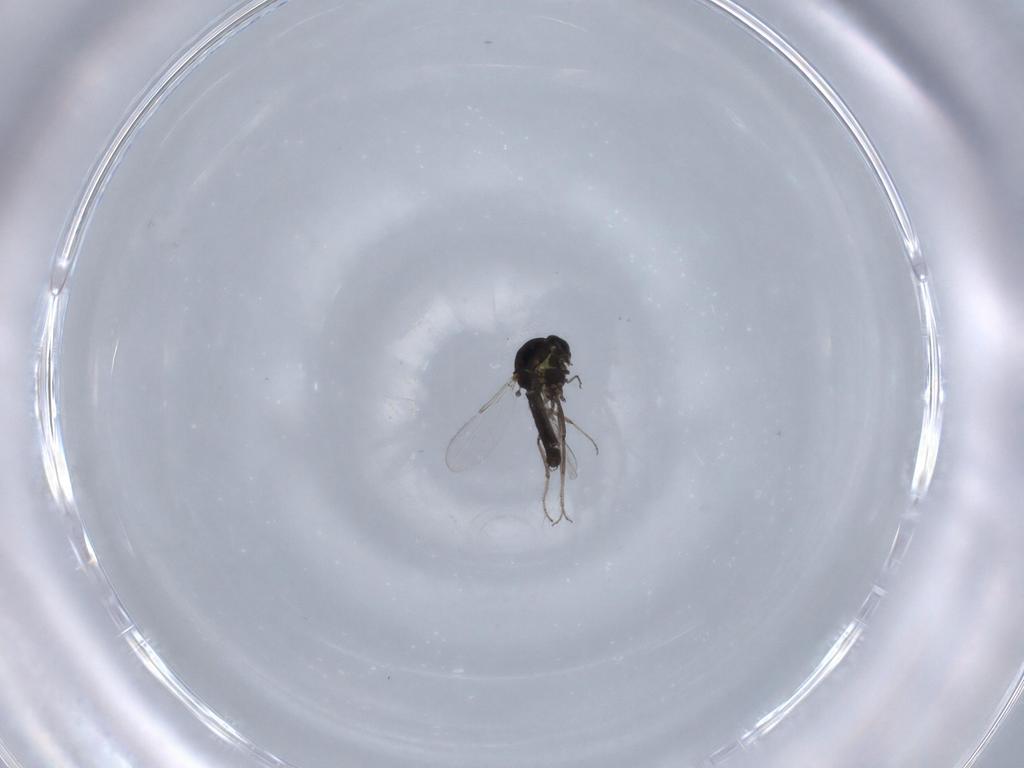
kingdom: Animalia
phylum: Arthropoda
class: Insecta
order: Diptera
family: Ceratopogonidae
